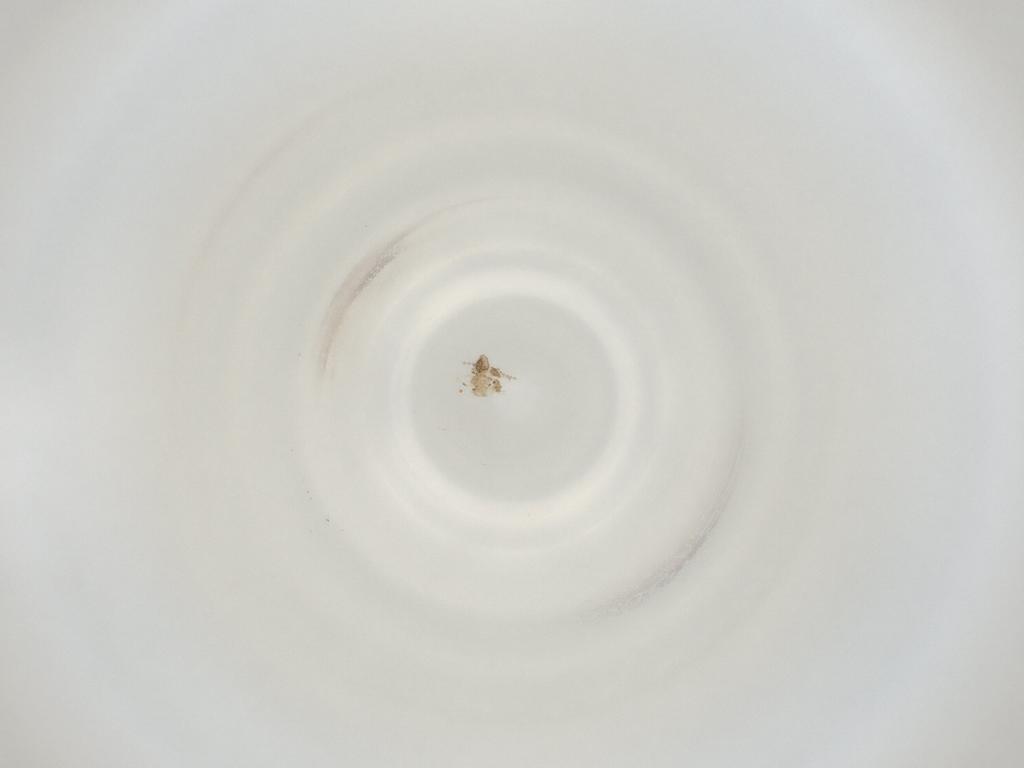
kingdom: Animalia
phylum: Arthropoda
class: Insecta
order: Diptera
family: Cecidomyiidae
